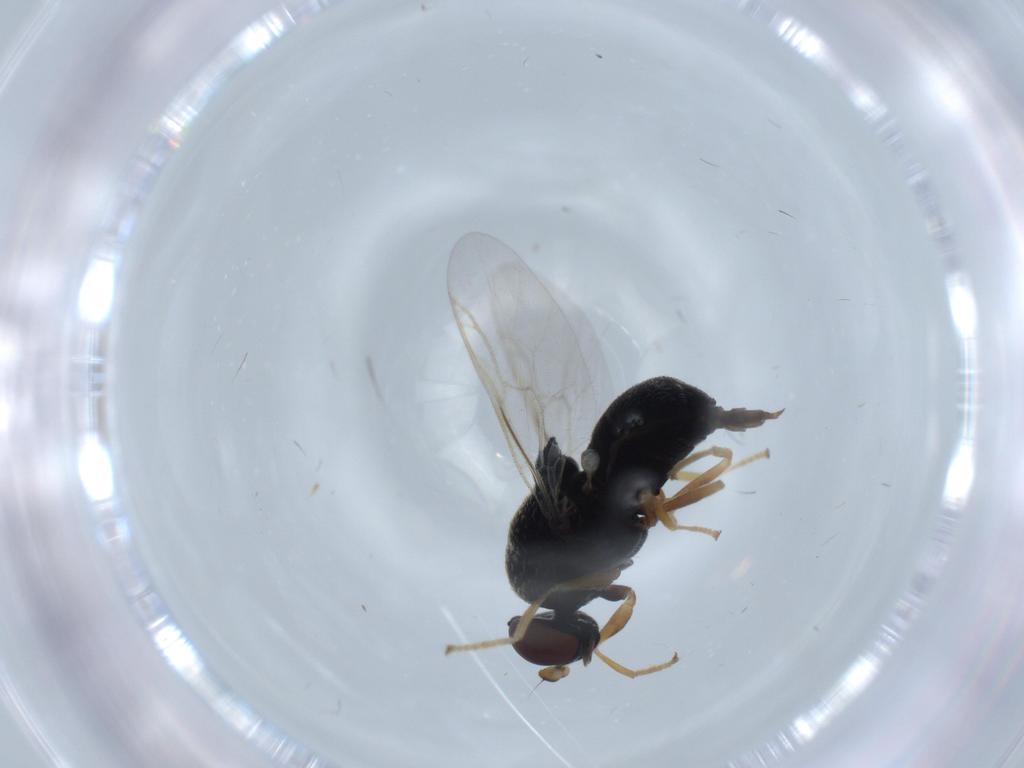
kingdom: Animalia
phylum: Arthropoda
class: Insecta
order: Diptera
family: Stratiomyidae
